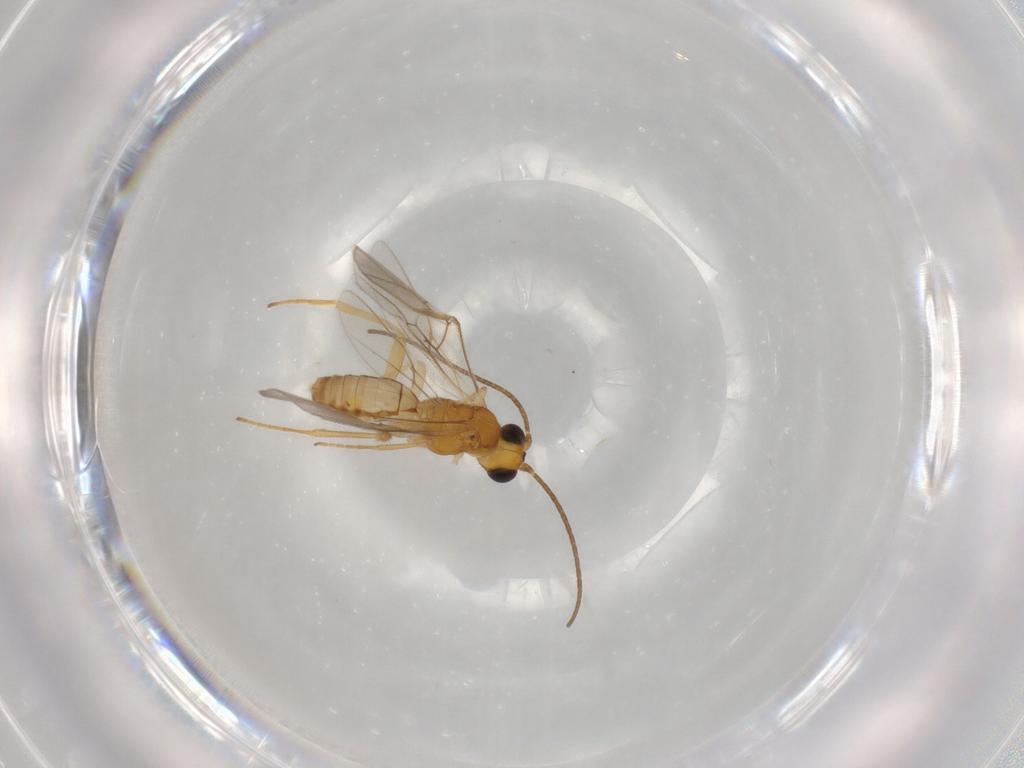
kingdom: Animalia
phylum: Arthropoda
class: Insecta
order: Hymenoptera
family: Braconidae
